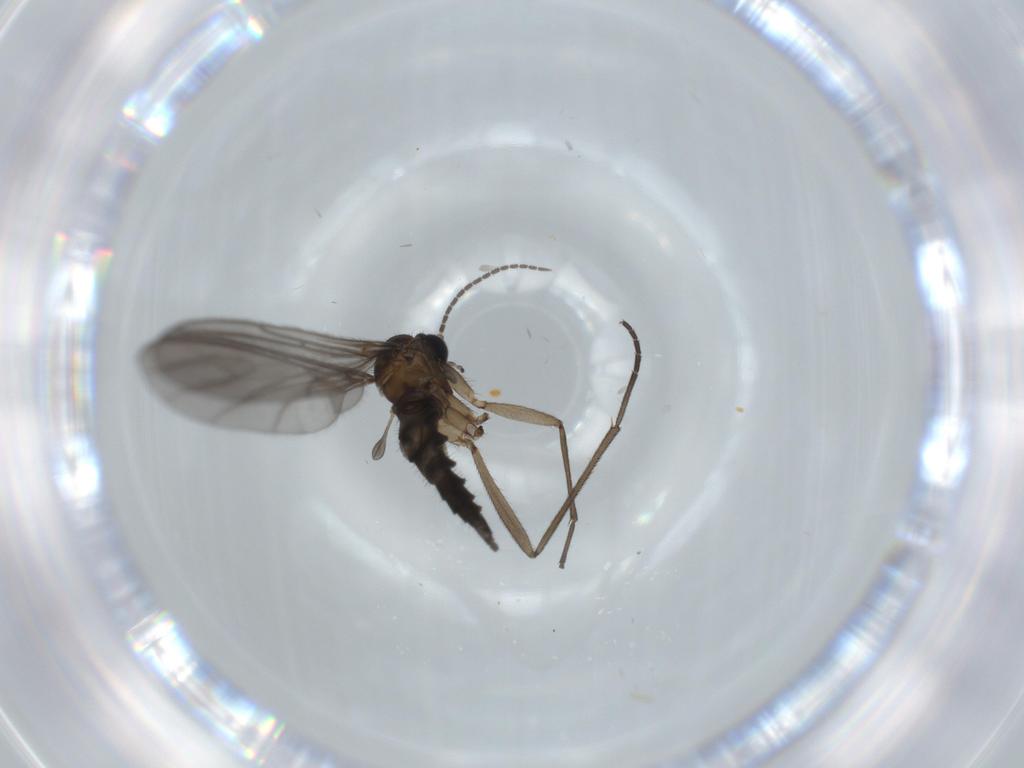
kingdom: Animalia
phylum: Arthropoda
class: Insecta
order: Diptera
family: Sciaridae
